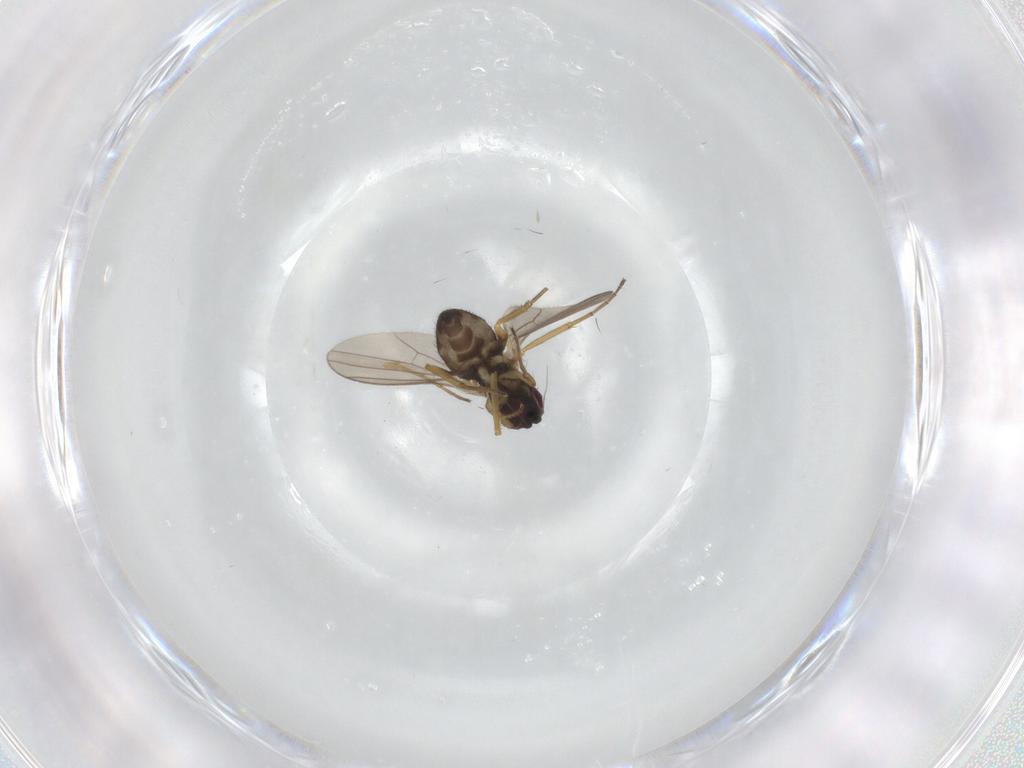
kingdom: Animalia
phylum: Arthropoda
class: Insecta
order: Diptera
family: Dolichopodidae
